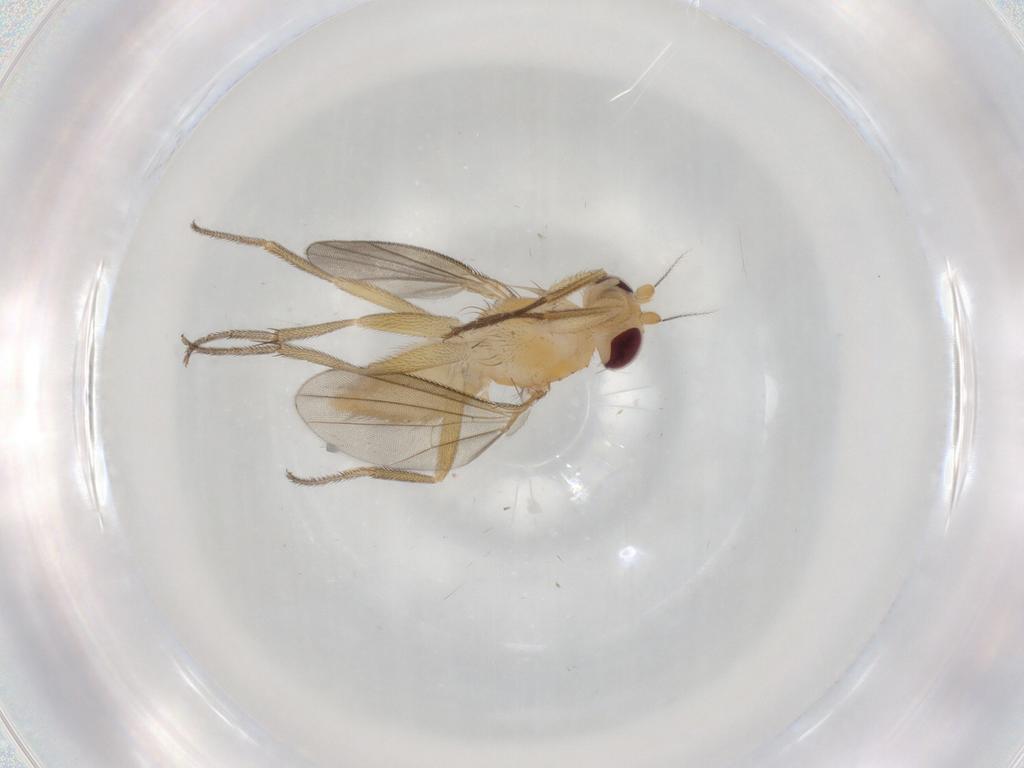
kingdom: Animalia
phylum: Arthropoda
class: Insecta
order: Diptera
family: Clusiidae
